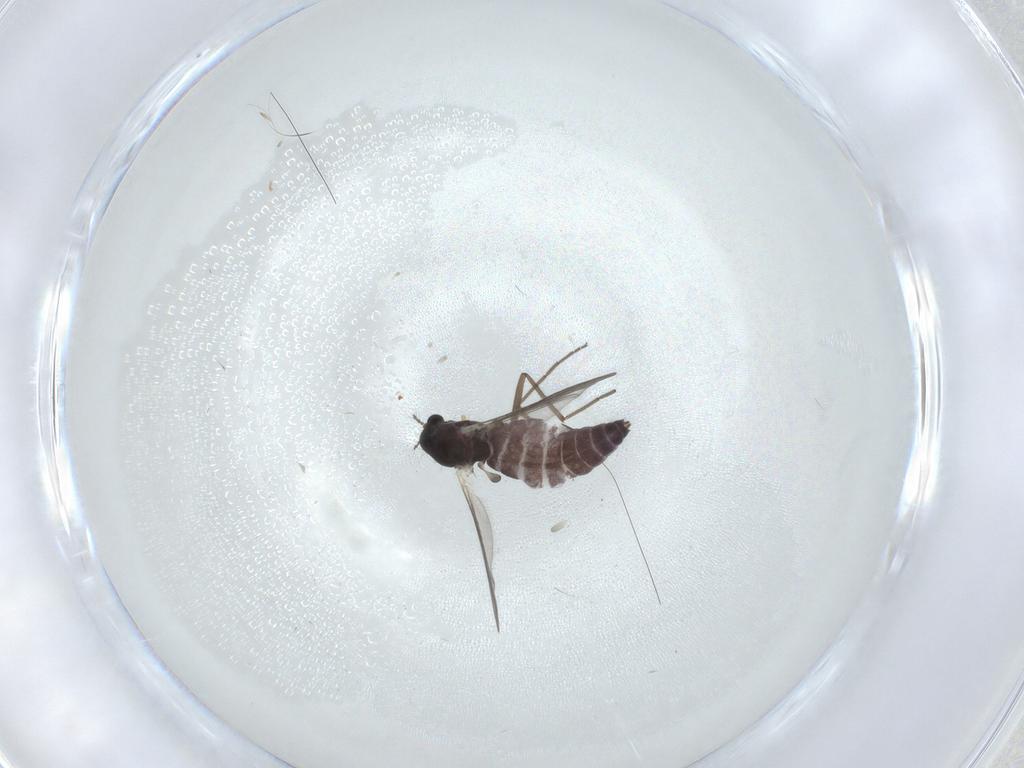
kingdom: Animalia
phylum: Arthropoda
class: Insecta
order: Diptera
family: Chironomidae
